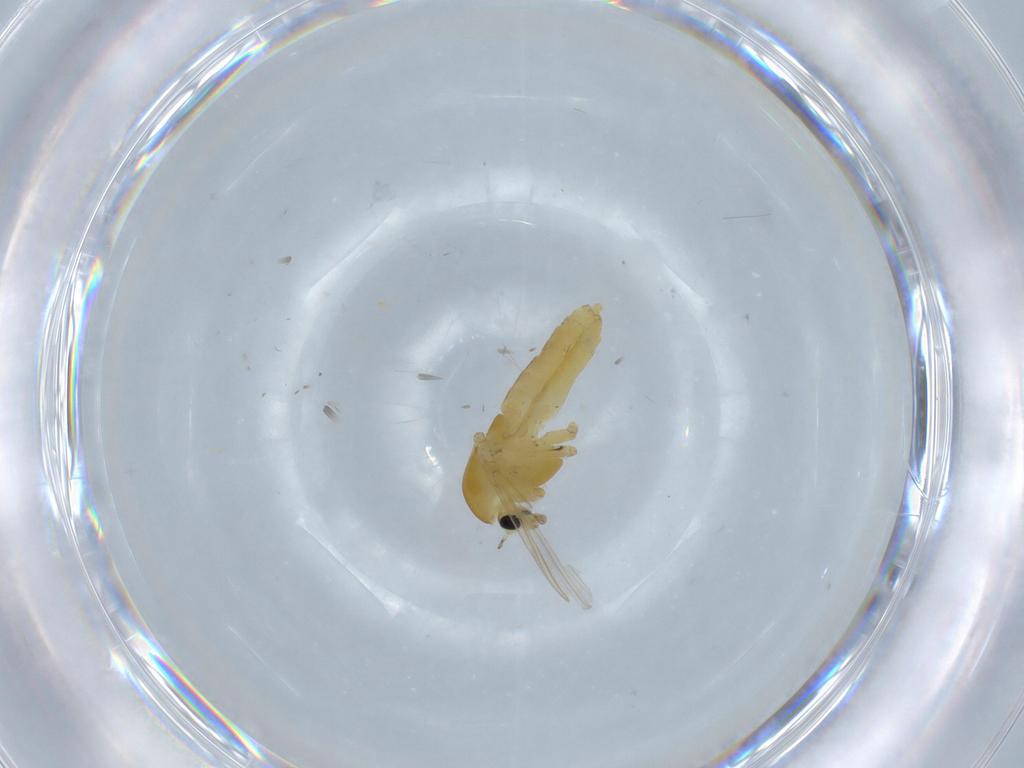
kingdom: Animalia
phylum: Arthropoda
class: Insecta
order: Diptera
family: Chironomidae
